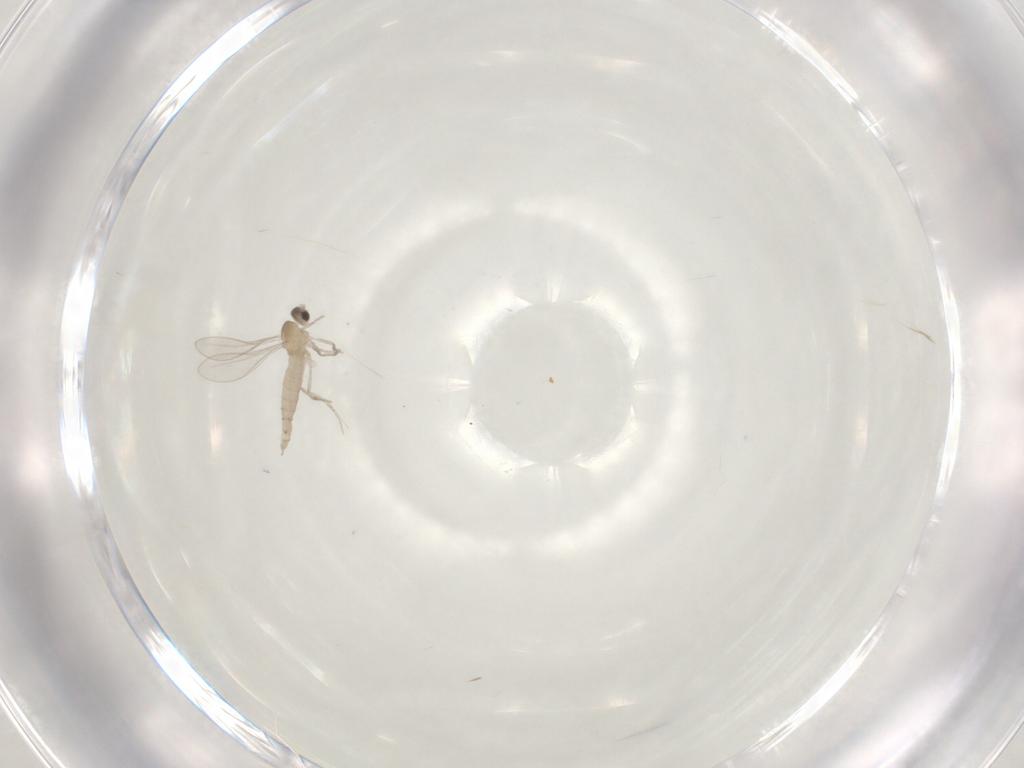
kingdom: Animalia
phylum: Arthropoda
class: Insecta
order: Diptera
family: Cecidomyiidae
